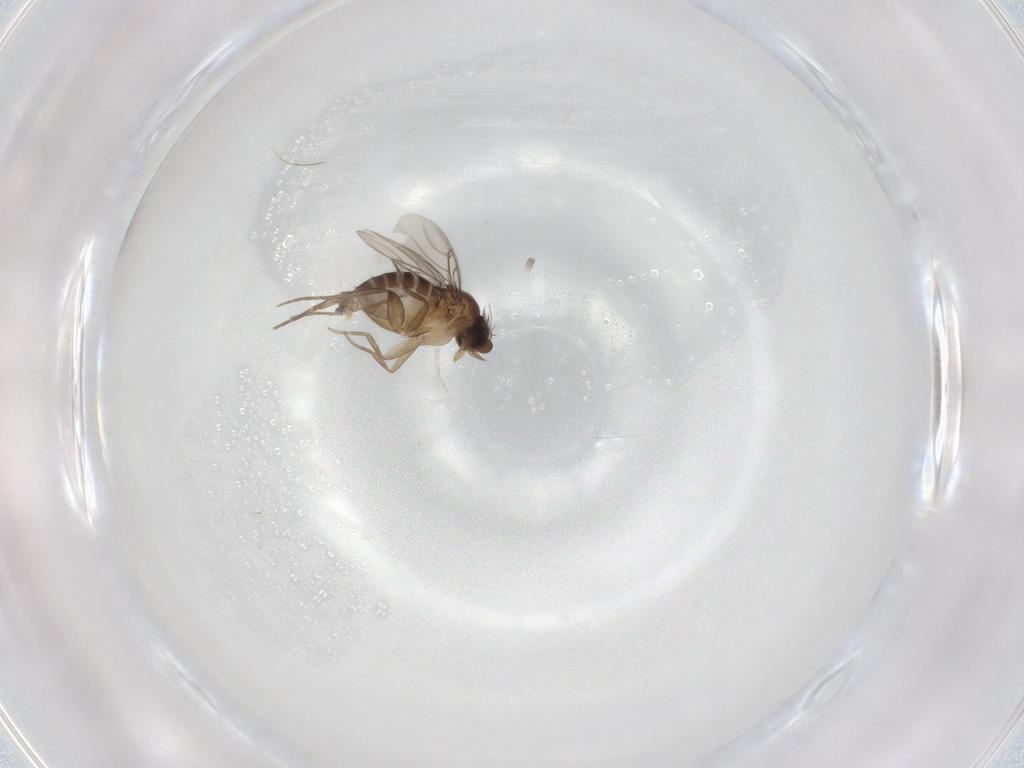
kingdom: Animalia
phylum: Arthropoda
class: Insecta
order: Diptera
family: Phoridae
